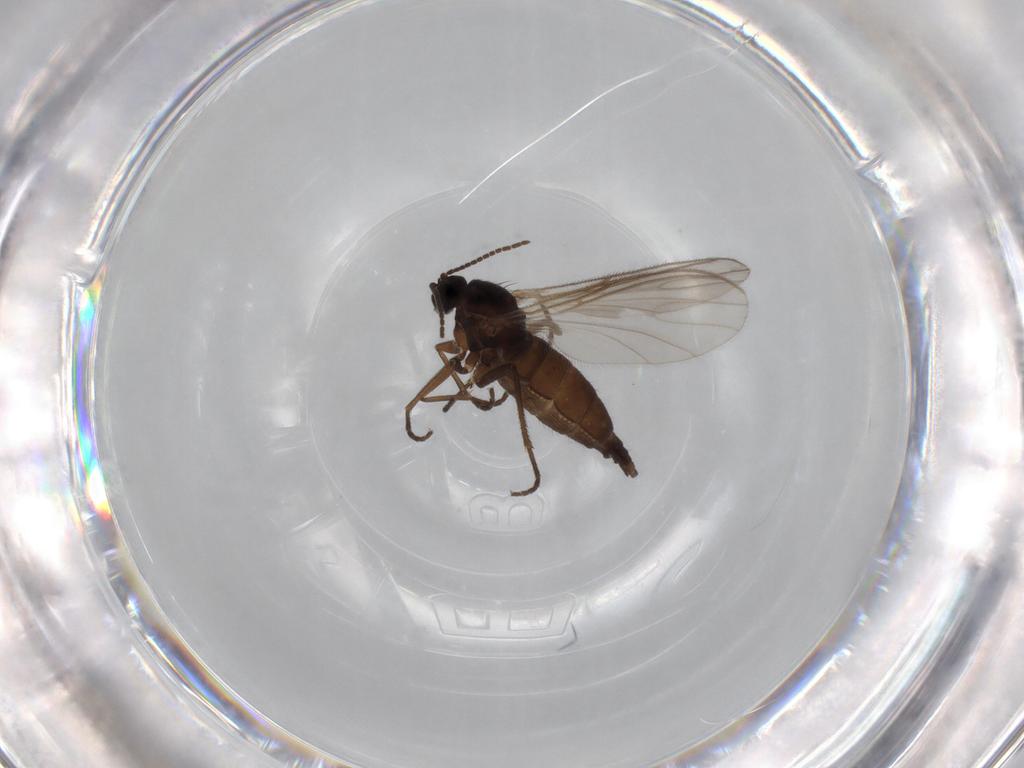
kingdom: Animalia
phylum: Arthropoda
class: Insecta
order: Diptera
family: Sciaridae
